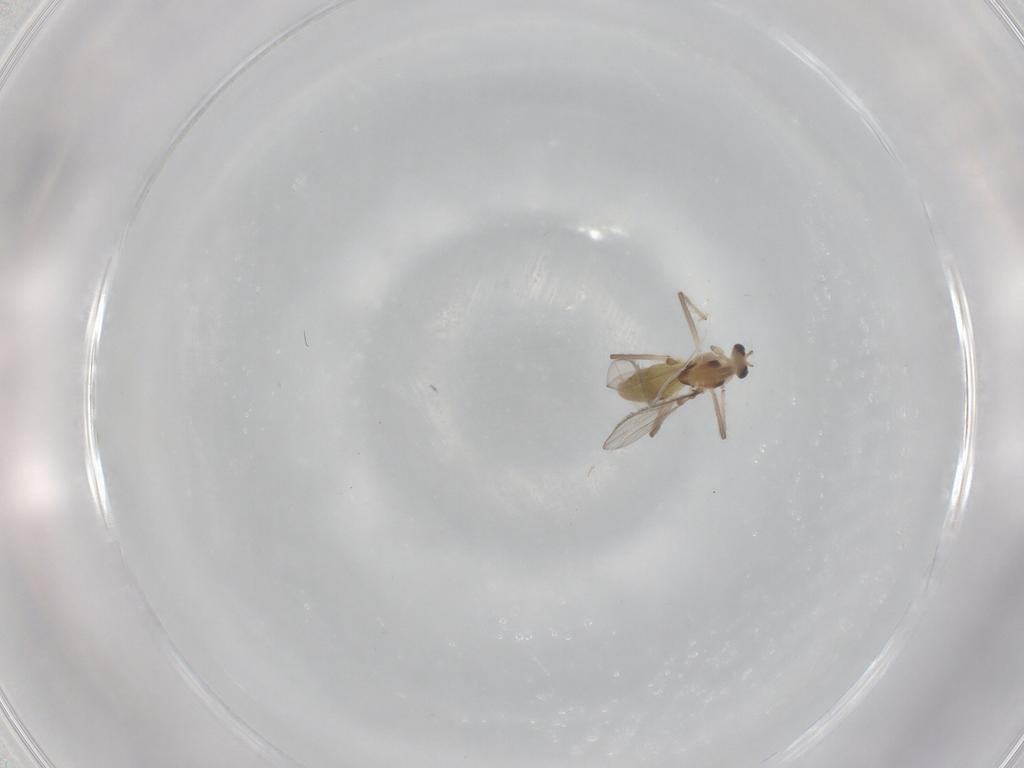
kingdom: Animalia
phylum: Arthropoda
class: Insecta
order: Diptera
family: Chironomidae
